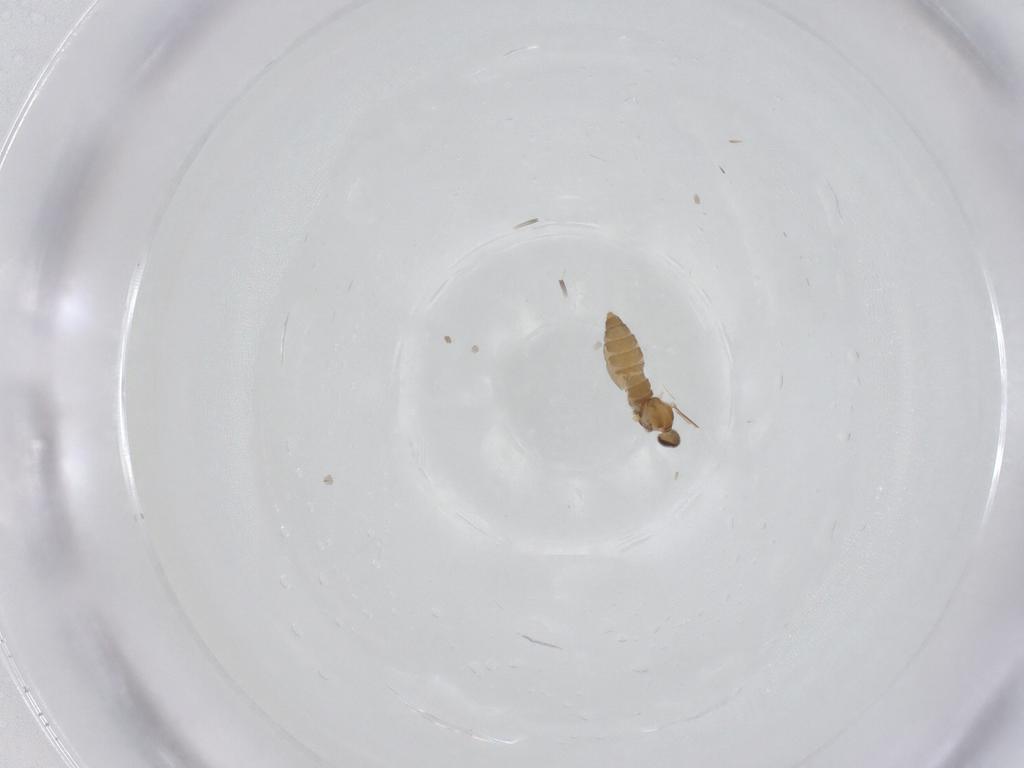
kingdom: Animalia
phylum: Arthropoda
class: Insecta
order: Diptera
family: Cecidomyiidae
